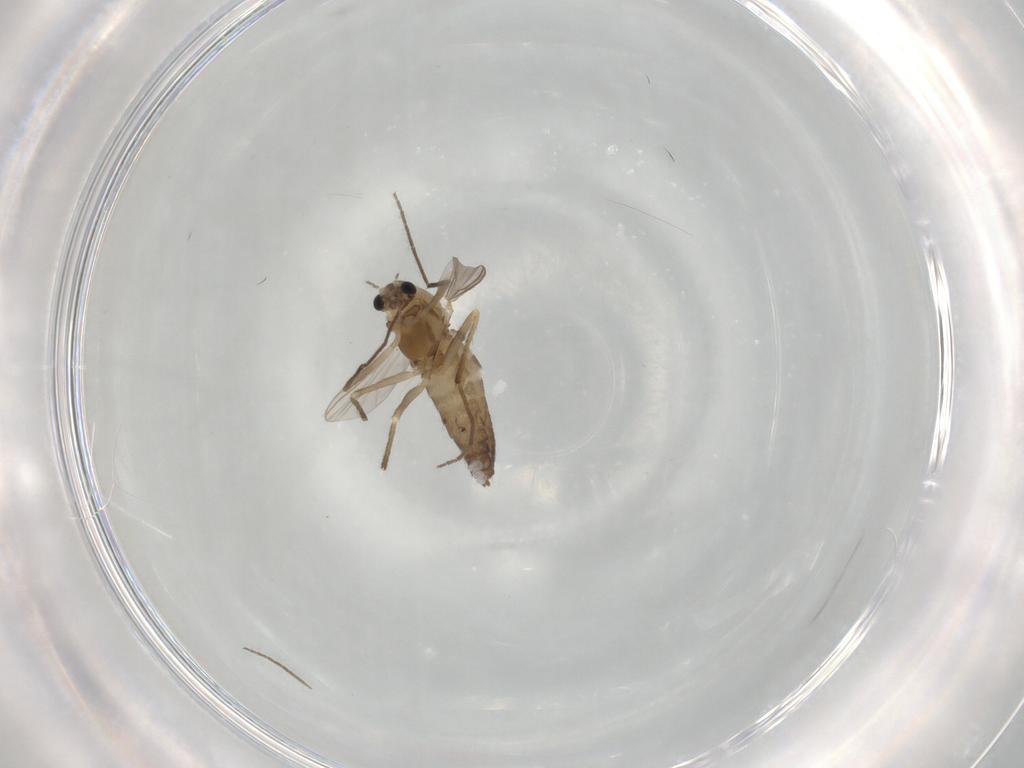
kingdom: Animalia
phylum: Arthropoda
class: Insecta
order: Diptera
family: Chironomidae
